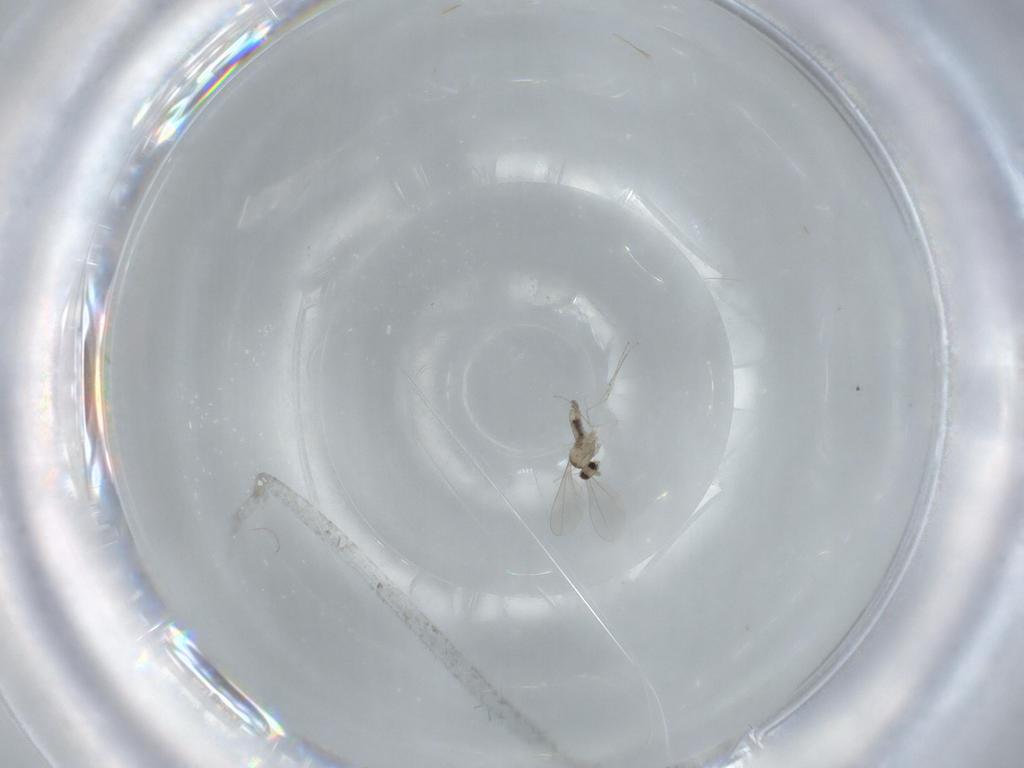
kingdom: Animalia
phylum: Arthropoda
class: Insecta
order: Diptera
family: Cecidomyiidae
